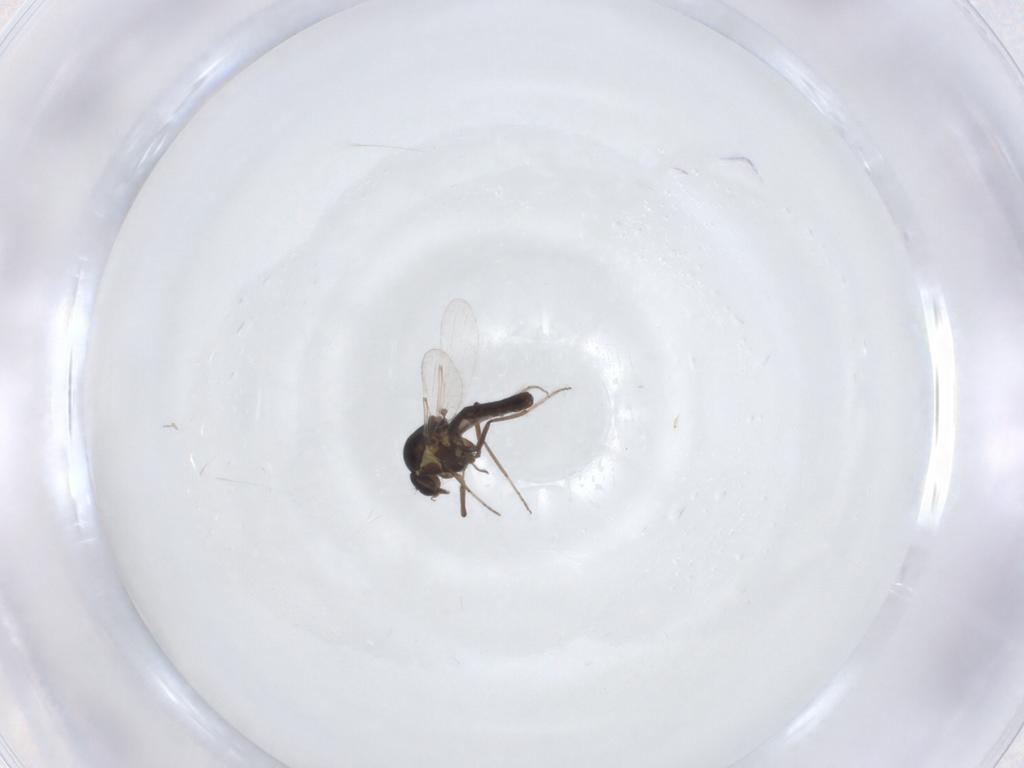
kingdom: Animalia
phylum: Arthropoda
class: Insecta
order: Diptera
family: Ceratopogonidae
